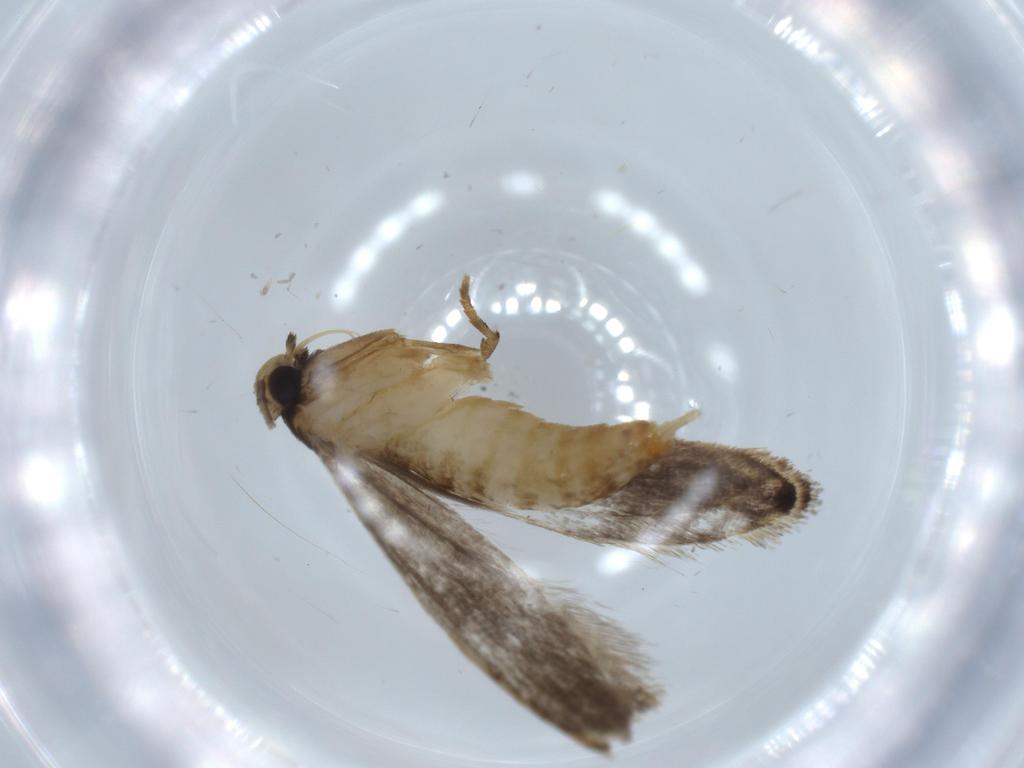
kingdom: Animalia
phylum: Arthropoda
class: Insecta
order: Lepidoptera
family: Tineidae
